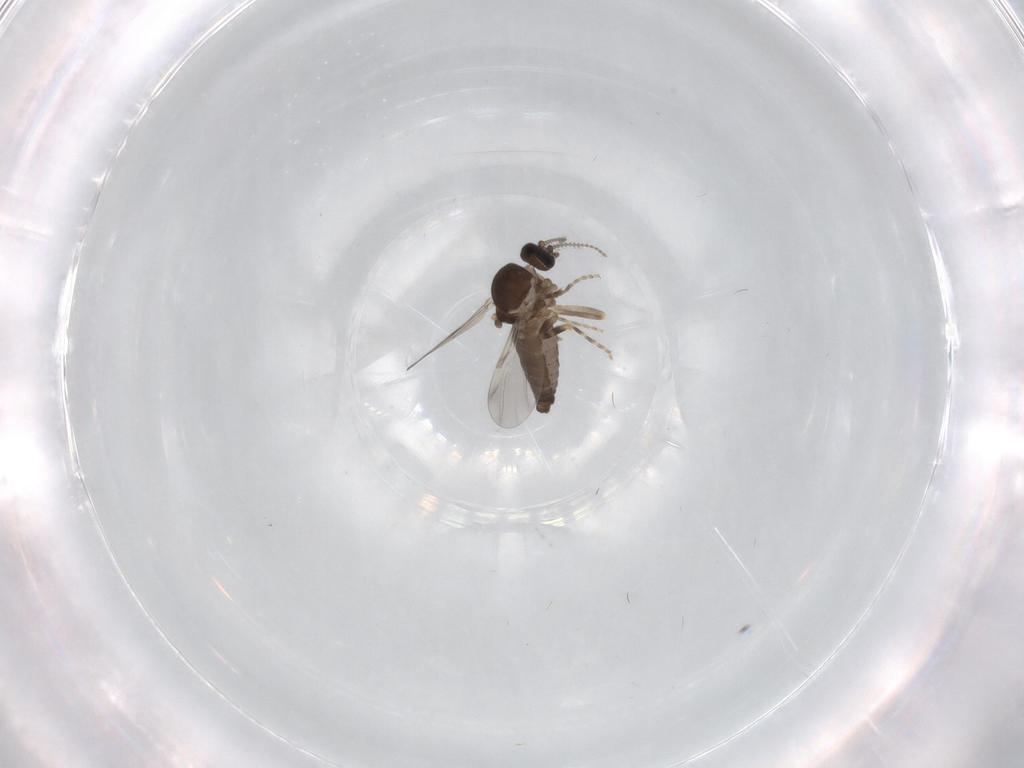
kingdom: Animalia
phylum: Arthropoda
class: Insecta
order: Diptera
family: Ceratopogonidae
